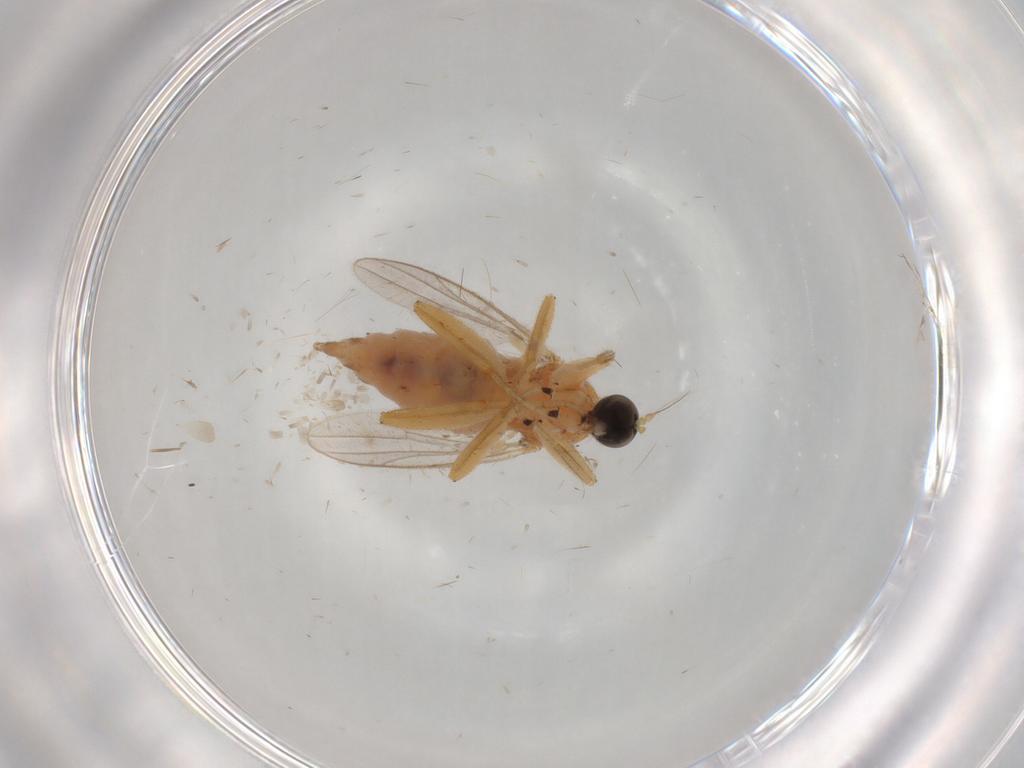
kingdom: Animalia
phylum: Arthropoda
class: Insecta
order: Diptera
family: Hybotidae
